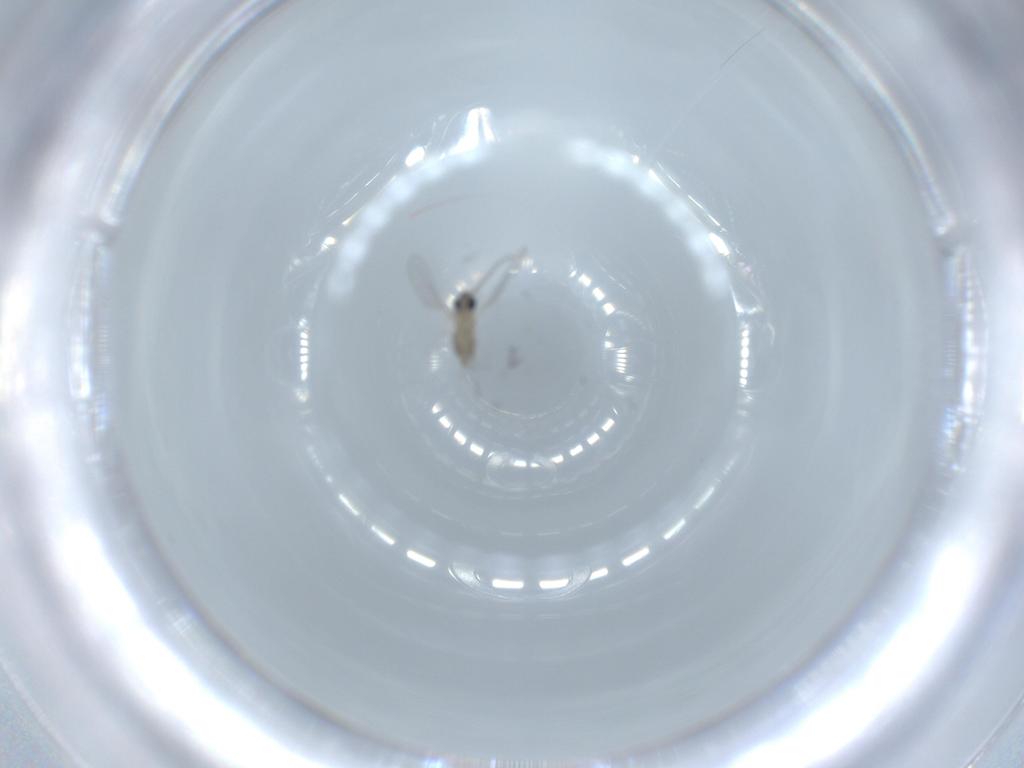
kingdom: Animalia
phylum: Arthropoda
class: Insecta
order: Diptera
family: Cecidomyiidae
